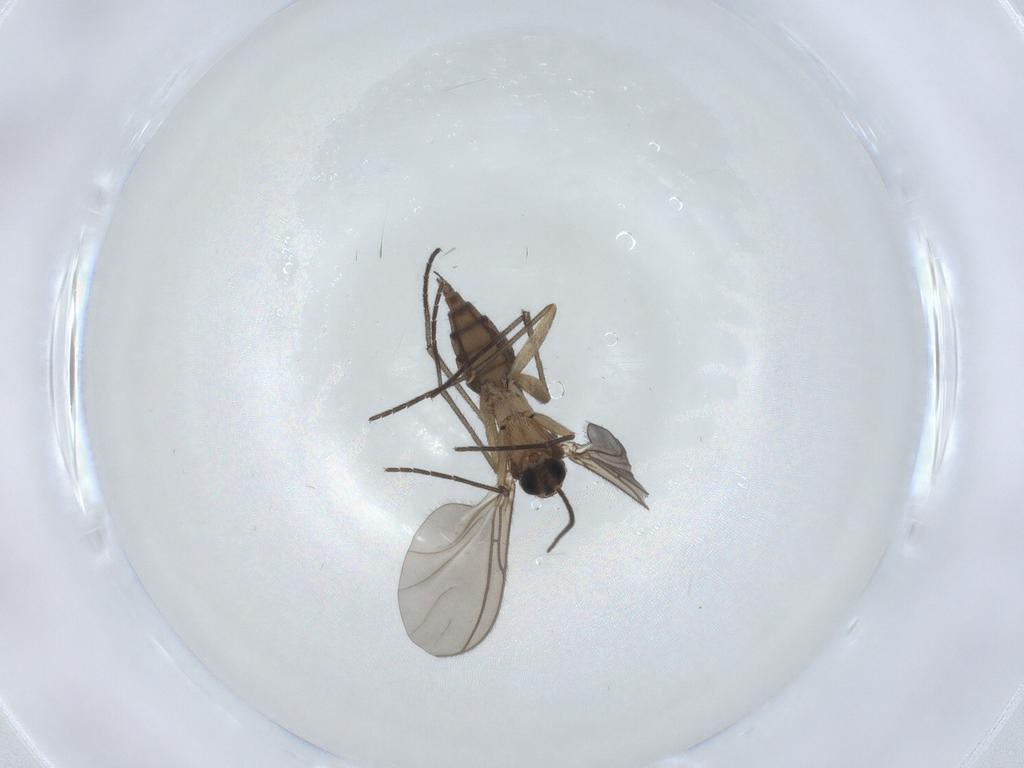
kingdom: Animalia
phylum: Arthropoda
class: Insecta
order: Diptera
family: Sciaridae
